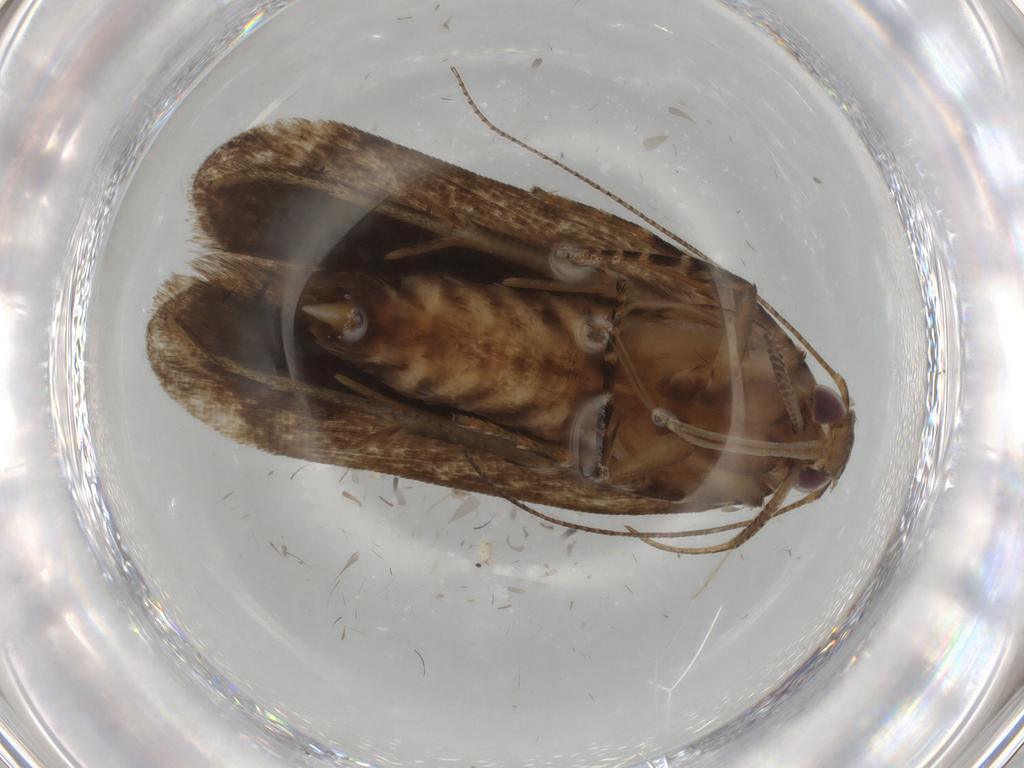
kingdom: Animalia
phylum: Arthropoda
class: Insecta
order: Lepidoptera
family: Gelechiidae
